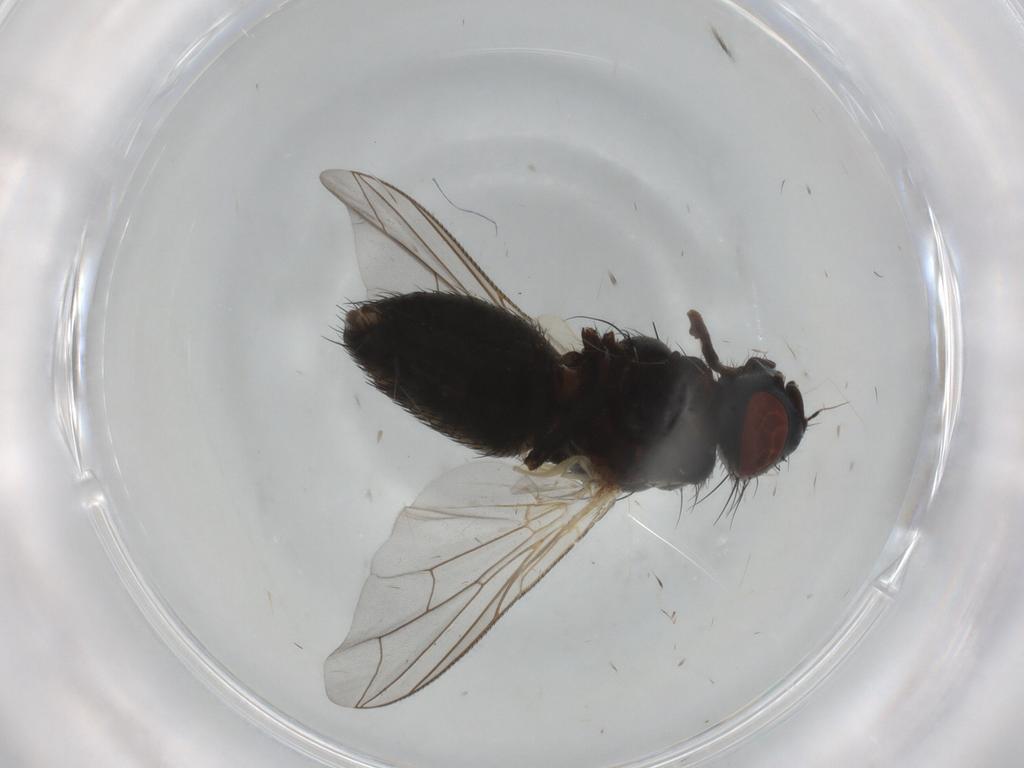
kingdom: Animalia
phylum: Arthropoda
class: Insecta
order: Diptera
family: Sarcophagidae
